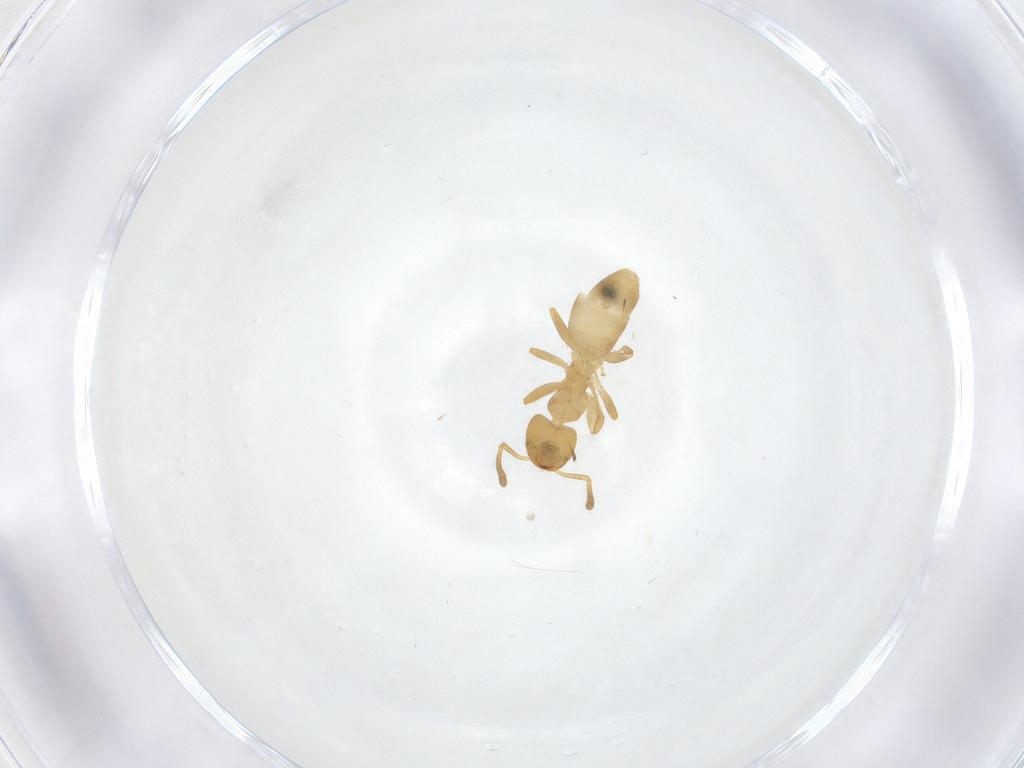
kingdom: Animalia
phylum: Arthropoda
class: Insecta
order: Hymenoptera
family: Formicidae
